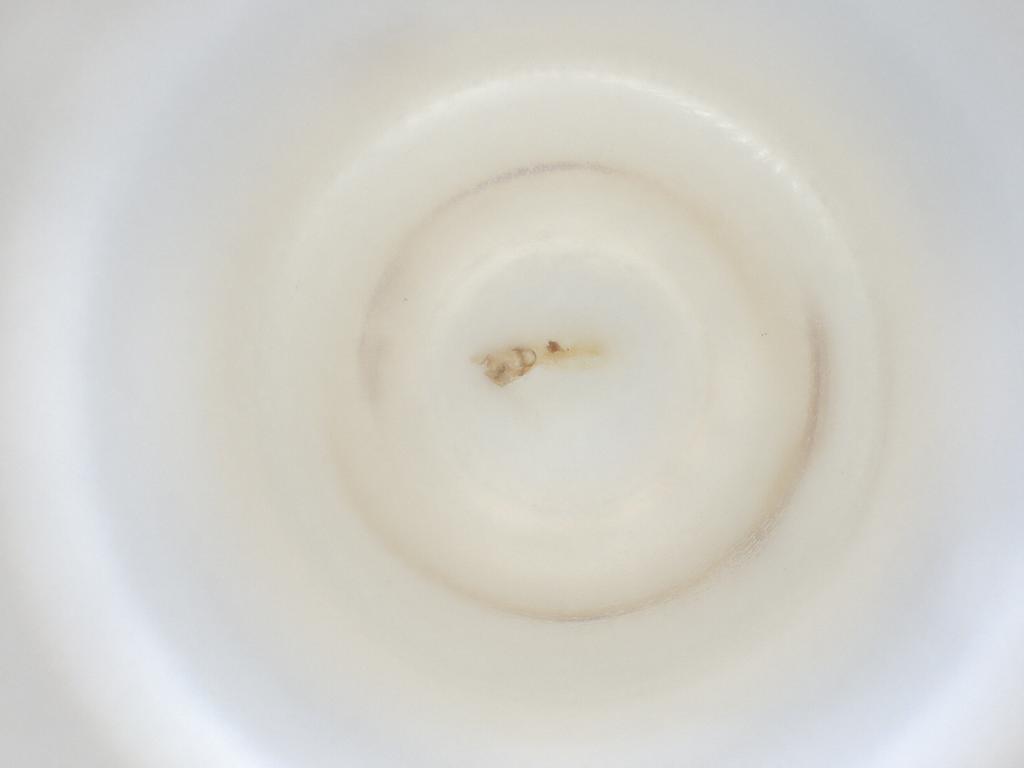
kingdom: Animalia
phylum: Arthropoda
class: Insecta
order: Diptera
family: Cecidomyiidae
